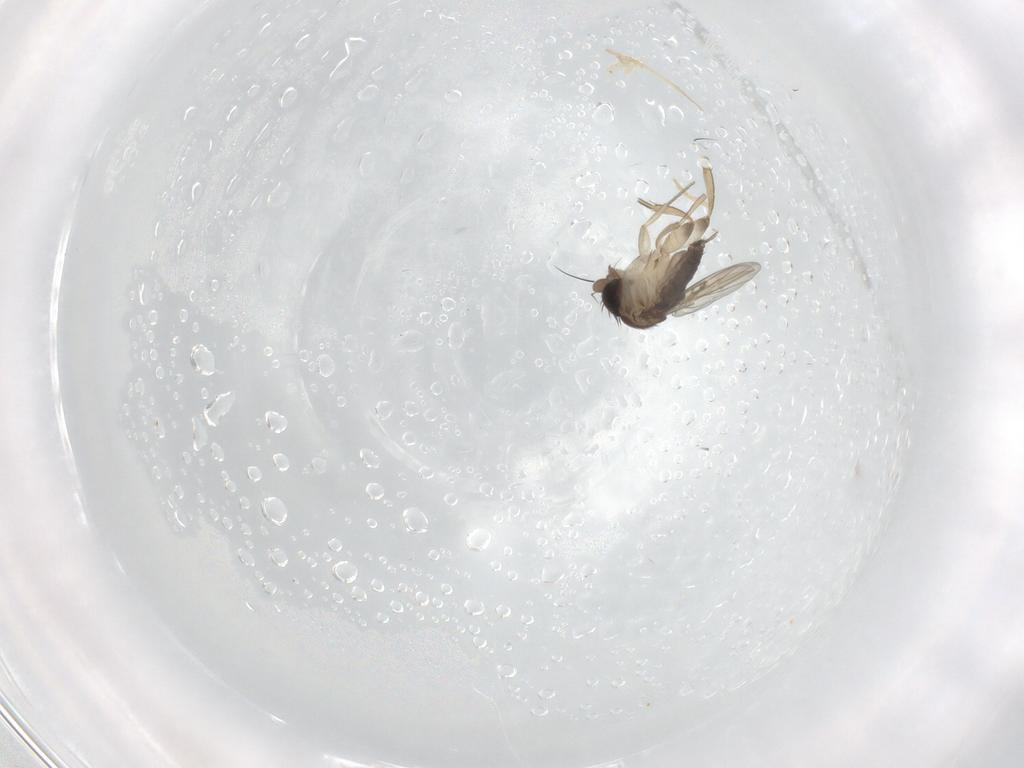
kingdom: Animalia
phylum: Arthropoda
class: Insecta
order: Diptera
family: Phoridae
